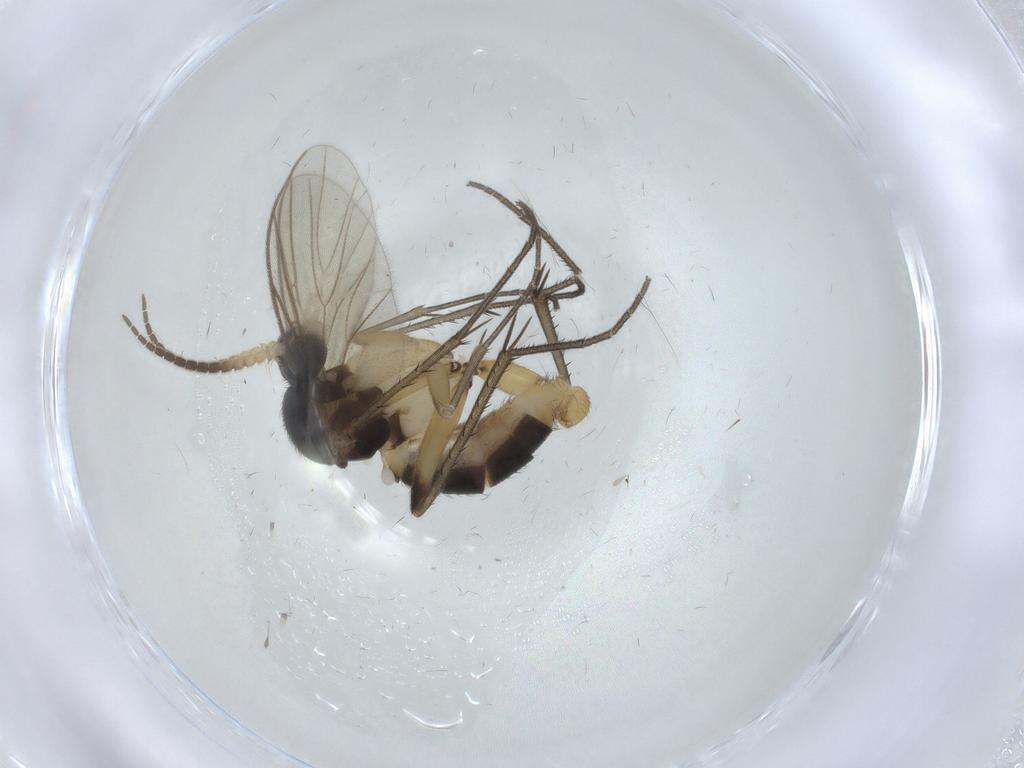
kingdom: Animalia
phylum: Arthropoda
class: Insecta
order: Diptera
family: Mycetophilidae
